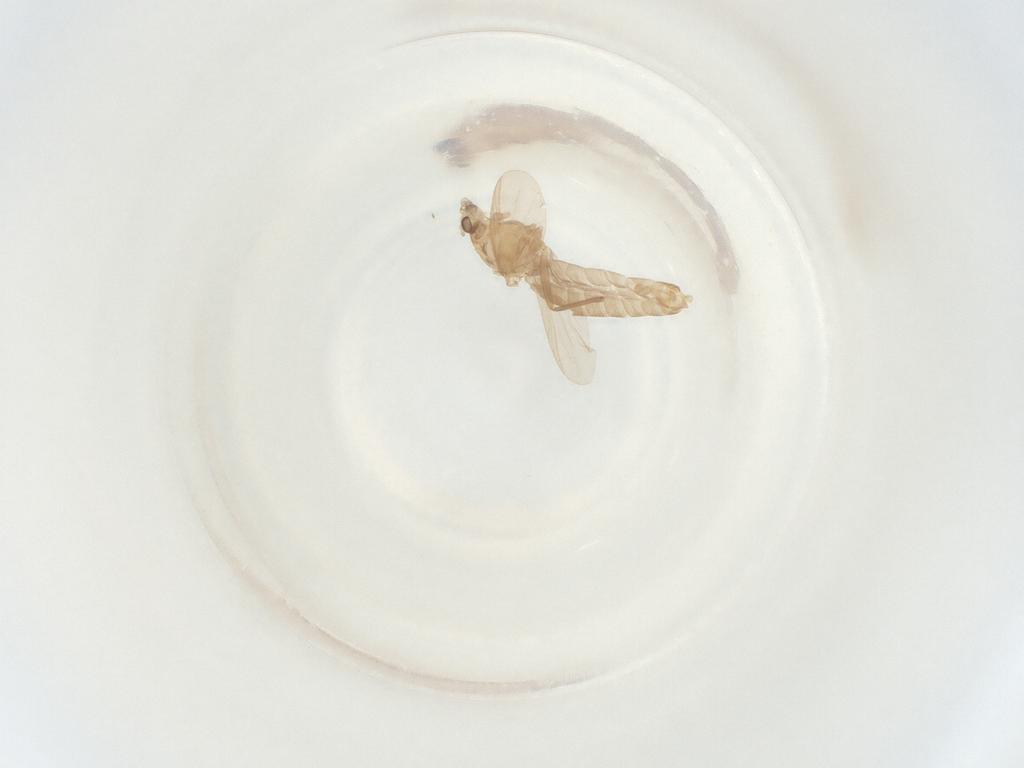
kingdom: Animalia
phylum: Arthropoda
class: Insecta
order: Diptera
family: Chironomidae
